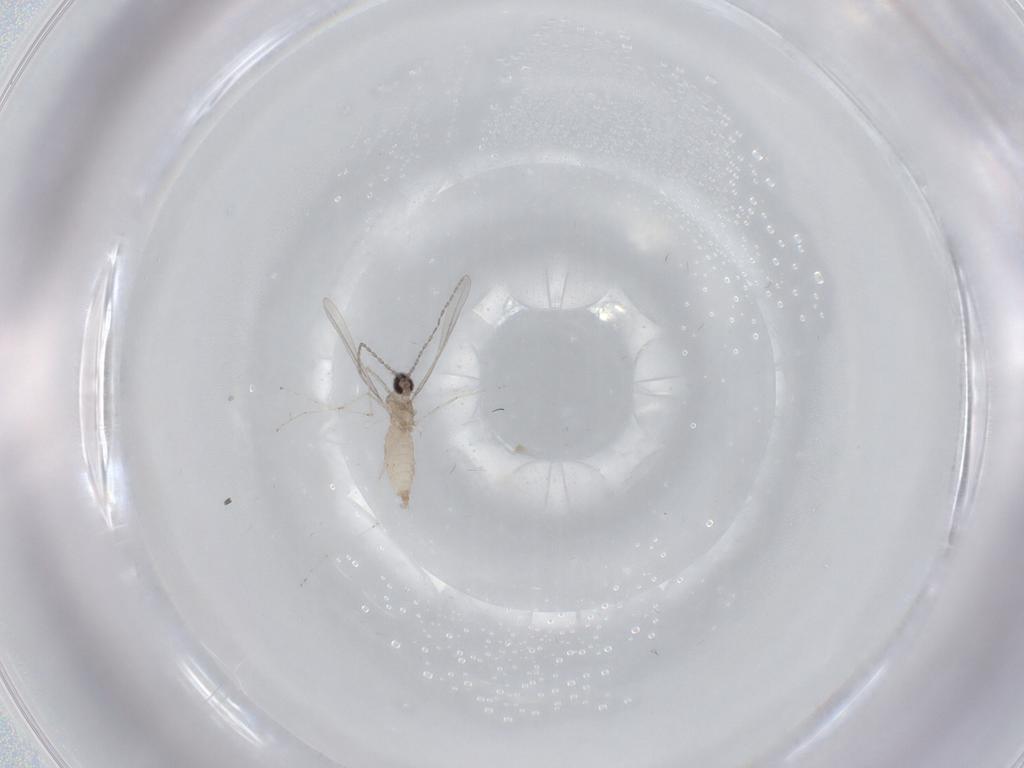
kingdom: Animalia
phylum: Arthropoda
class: Insecta
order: Diptera
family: Cecidomyiidae
